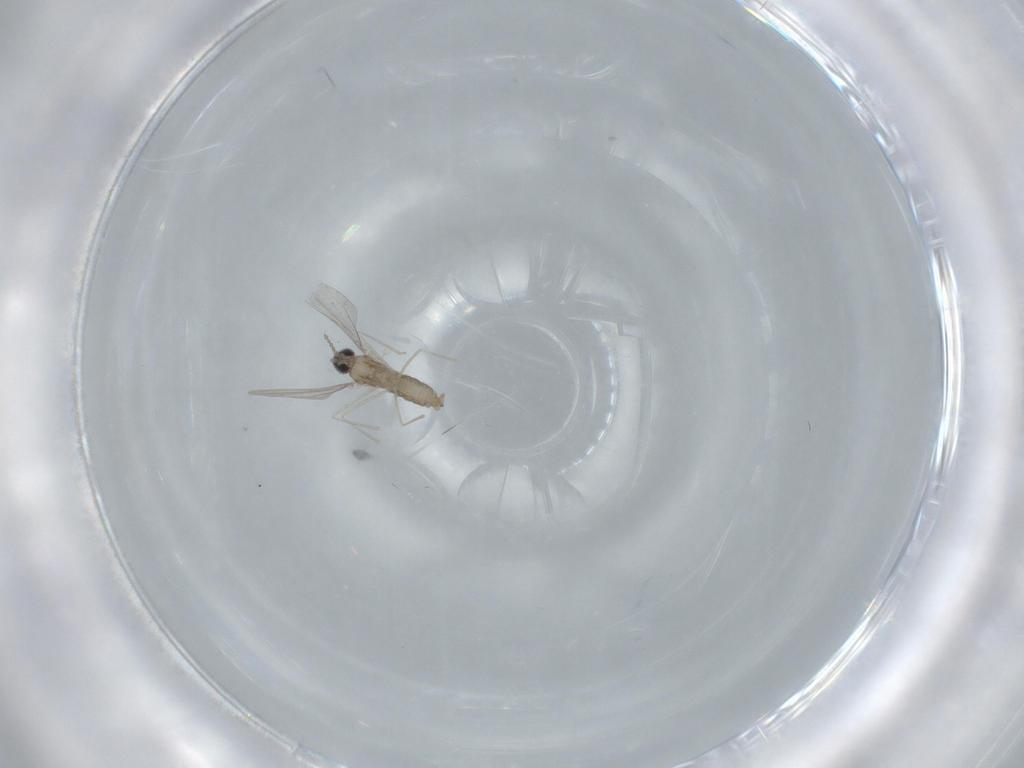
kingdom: Animalia
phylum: Arthropoda
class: Insecta
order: Diptera
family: Cecidomyiidae
